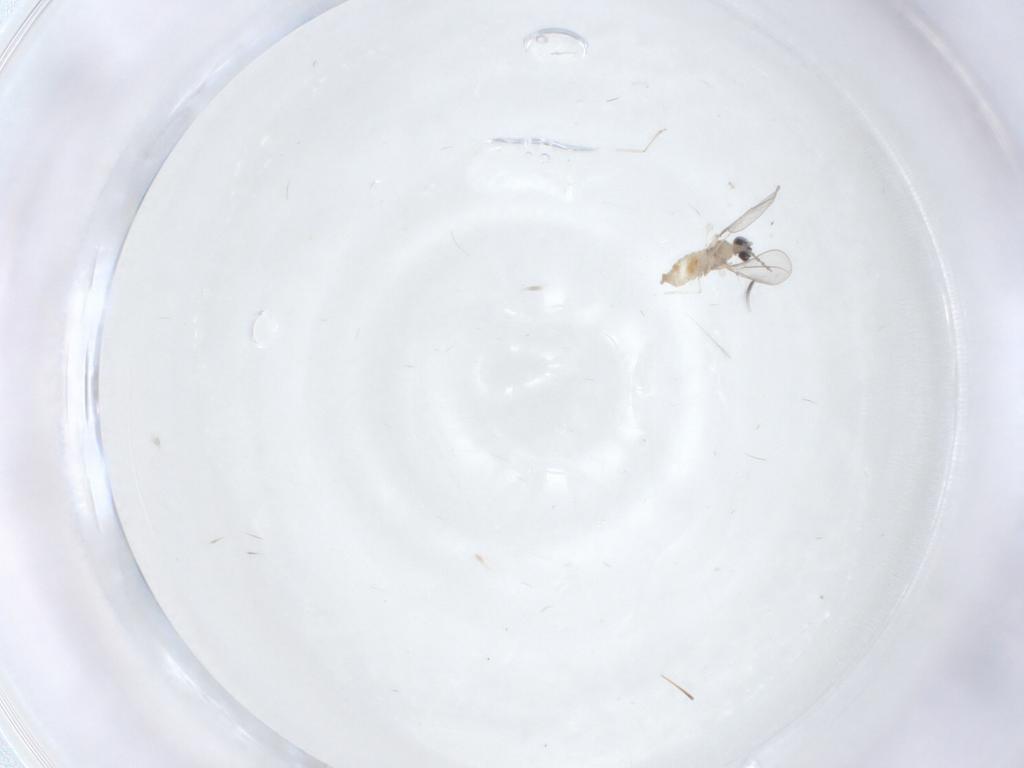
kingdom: Animalia
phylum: Arthropoda
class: Insecta
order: Diptera
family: Cecidomyiidae
